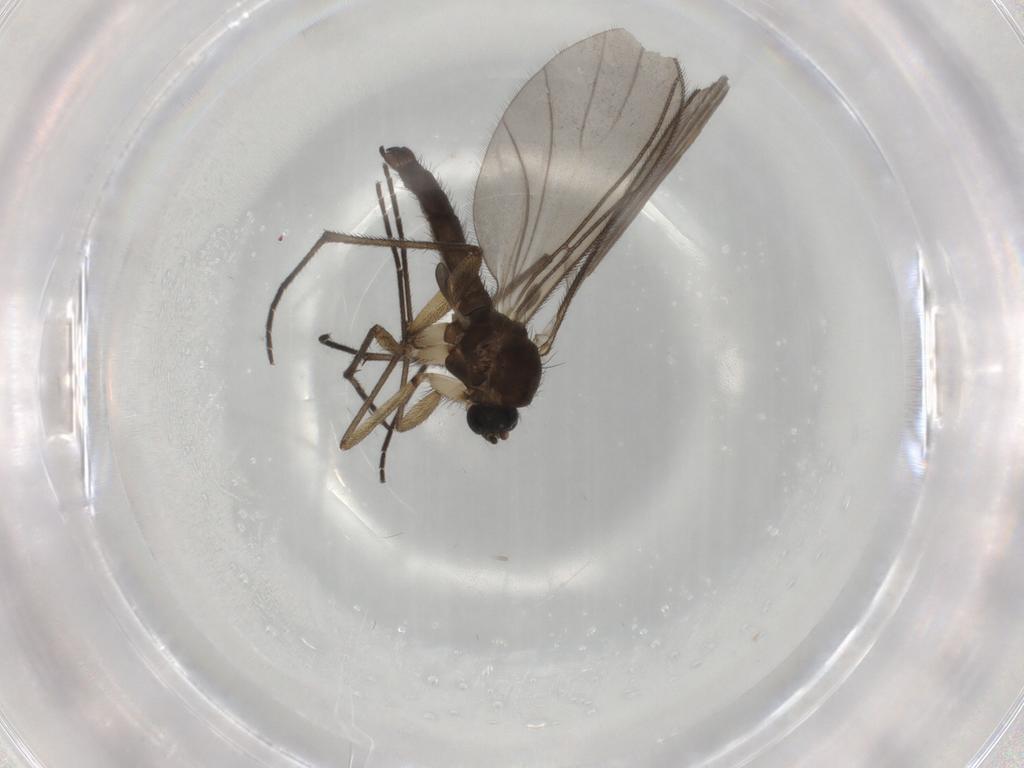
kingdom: Animalia
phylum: Arthropoda
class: Insecta
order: Diptera
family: Sciaridae
